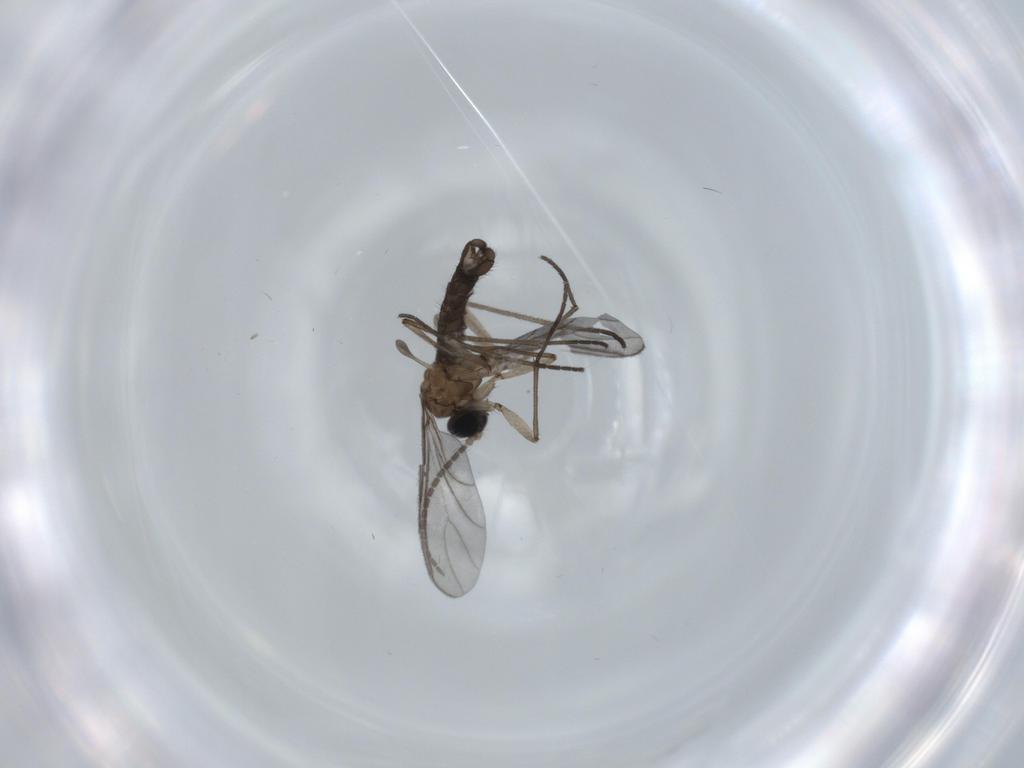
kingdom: Animalia
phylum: Arthropoda
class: Insecta
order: Diptera
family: Sciaridae
